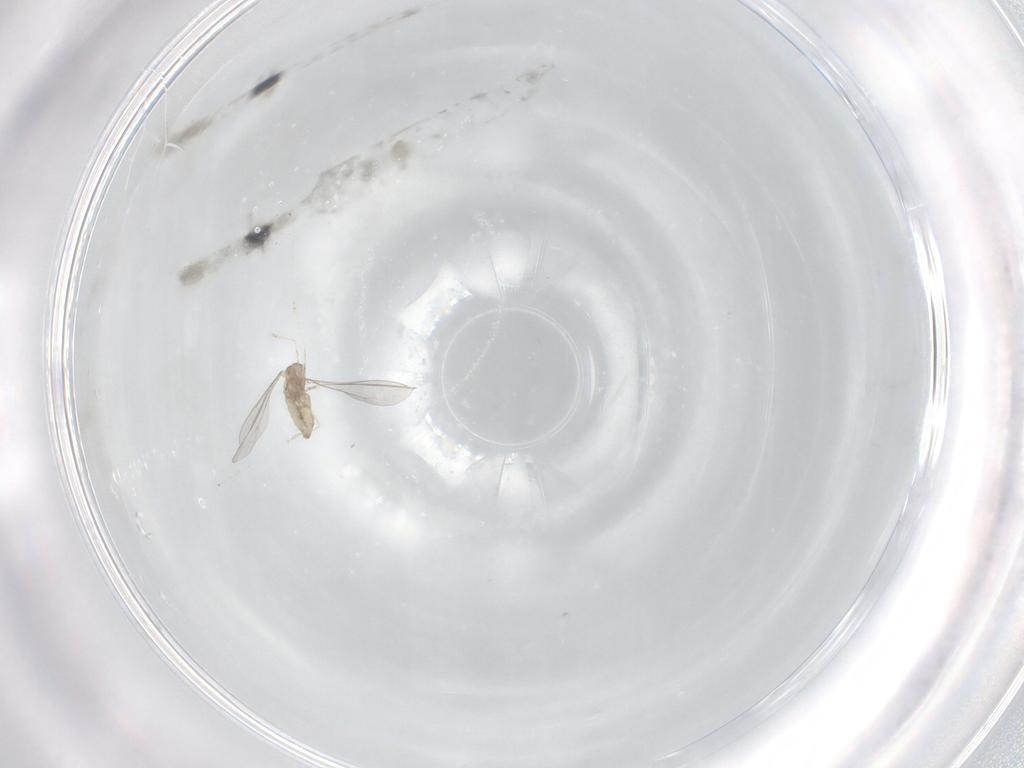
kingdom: Animalia
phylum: Arthropoda
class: Insecta
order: Diptera
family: Cecidomyiidae
